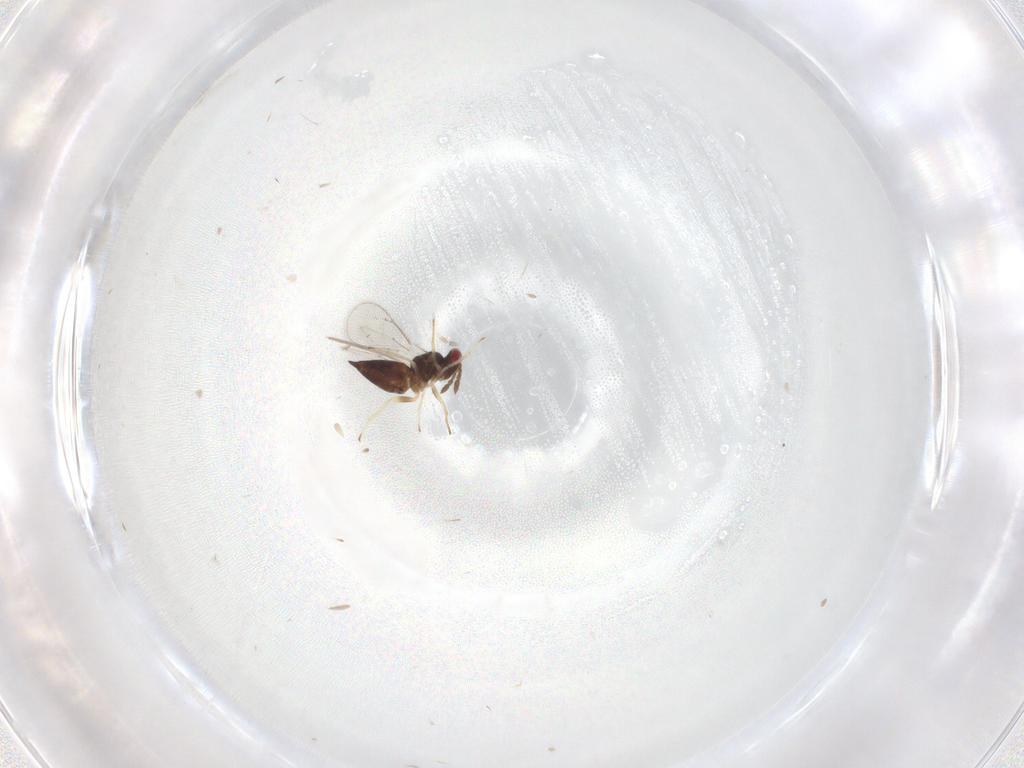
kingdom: Animalia
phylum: Arthropoda
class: Insecta
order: Hymenoptera
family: Eulophidae
